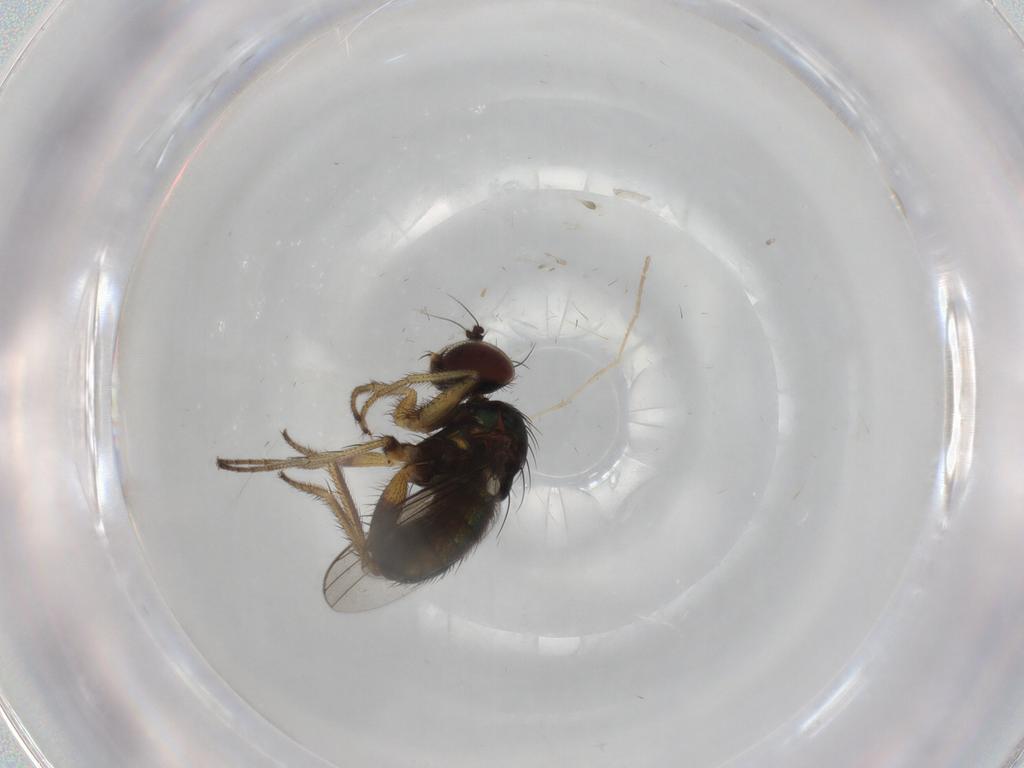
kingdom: Animalia
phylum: Arthropoda
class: Insecta
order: Diptera
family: Dolichopodidae
